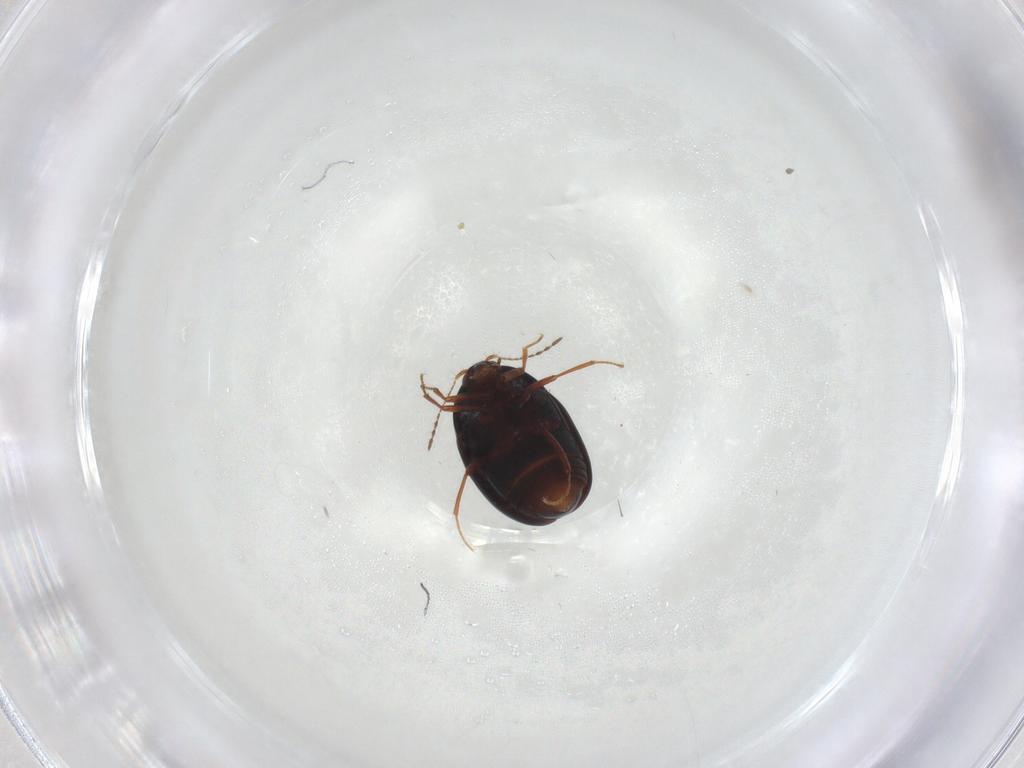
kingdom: Animalia
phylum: Arthropoda
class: Insecta
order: Coleoptera
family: Staphylinidae
